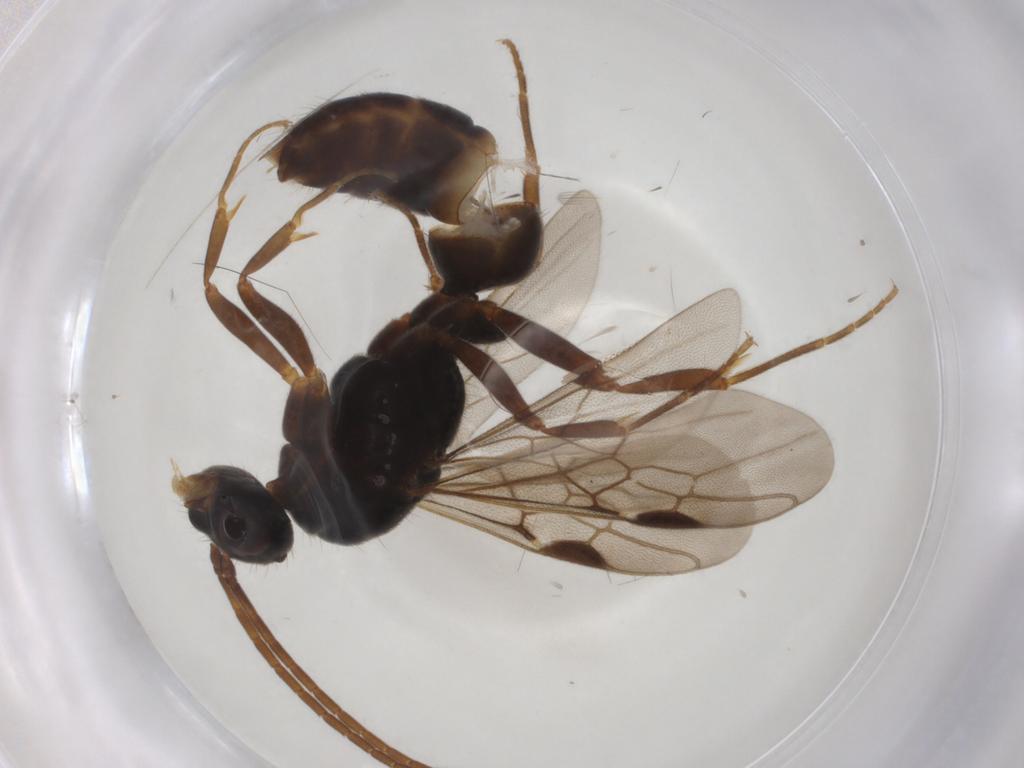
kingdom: Animalia
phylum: Arthropoda
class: Insecta
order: Hymenoptera
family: Formicidae
